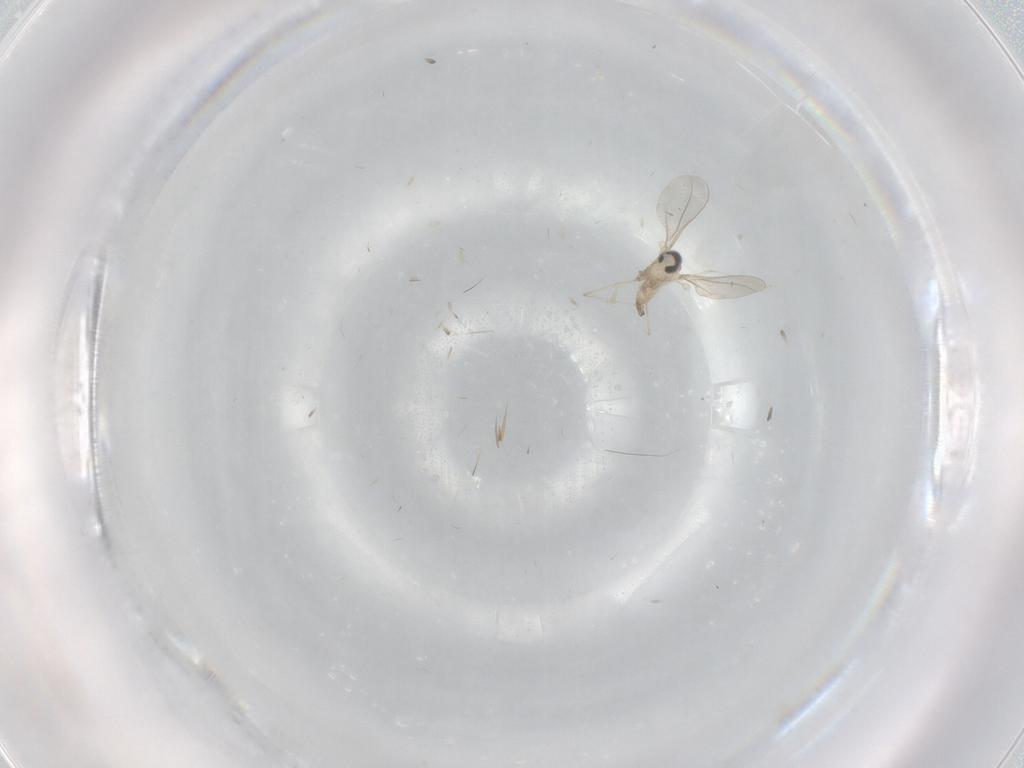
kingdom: Animalia
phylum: Arthropoda
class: Insecta
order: Diptera
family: Cecidomyiidae
